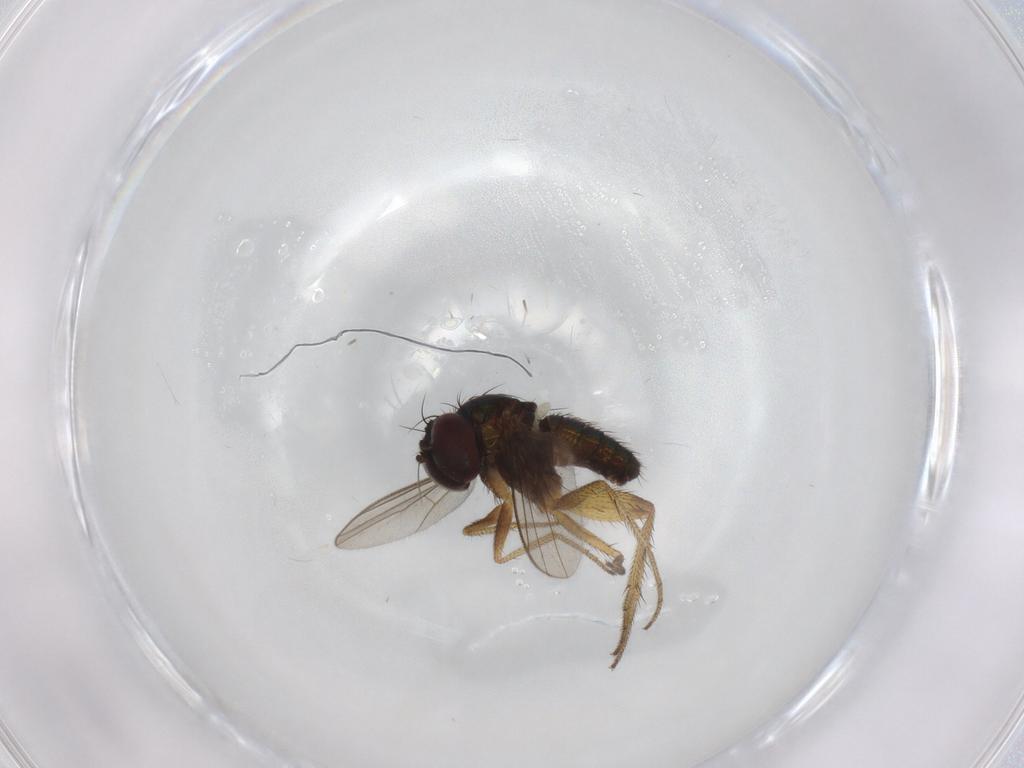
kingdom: Animalia
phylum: Arthropoda
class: Insecta
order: Diptera
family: Dolichopodidae
